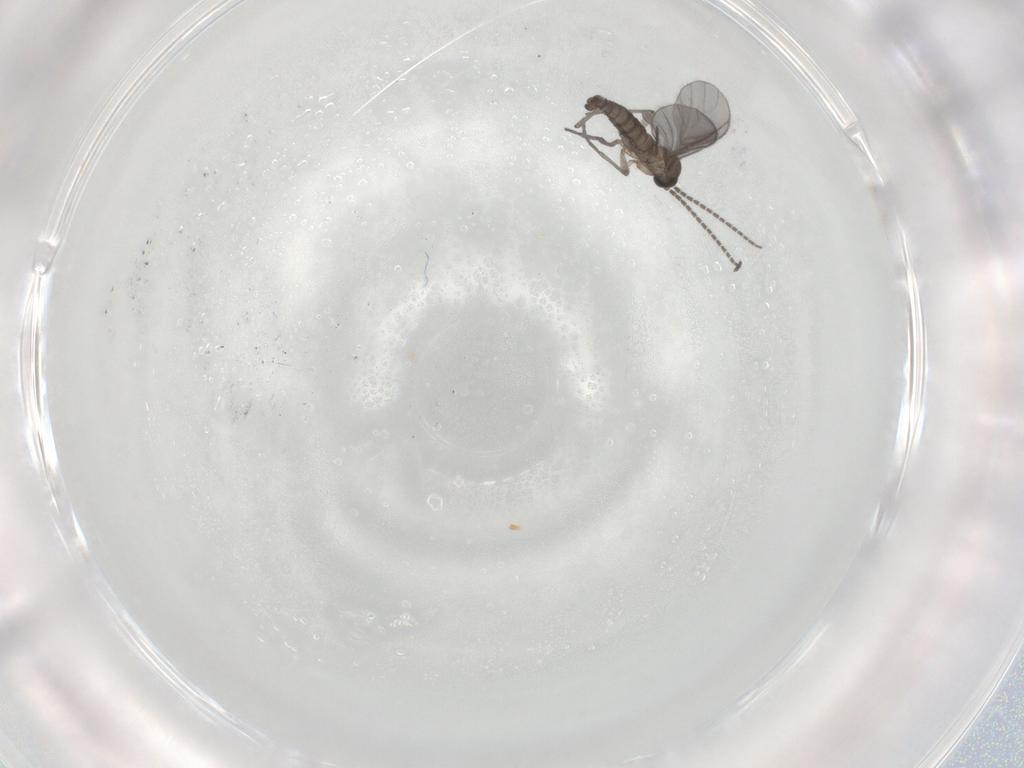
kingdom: Animalia
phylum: Arthropoda
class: Insecta
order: Diptera
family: Sciaridae
